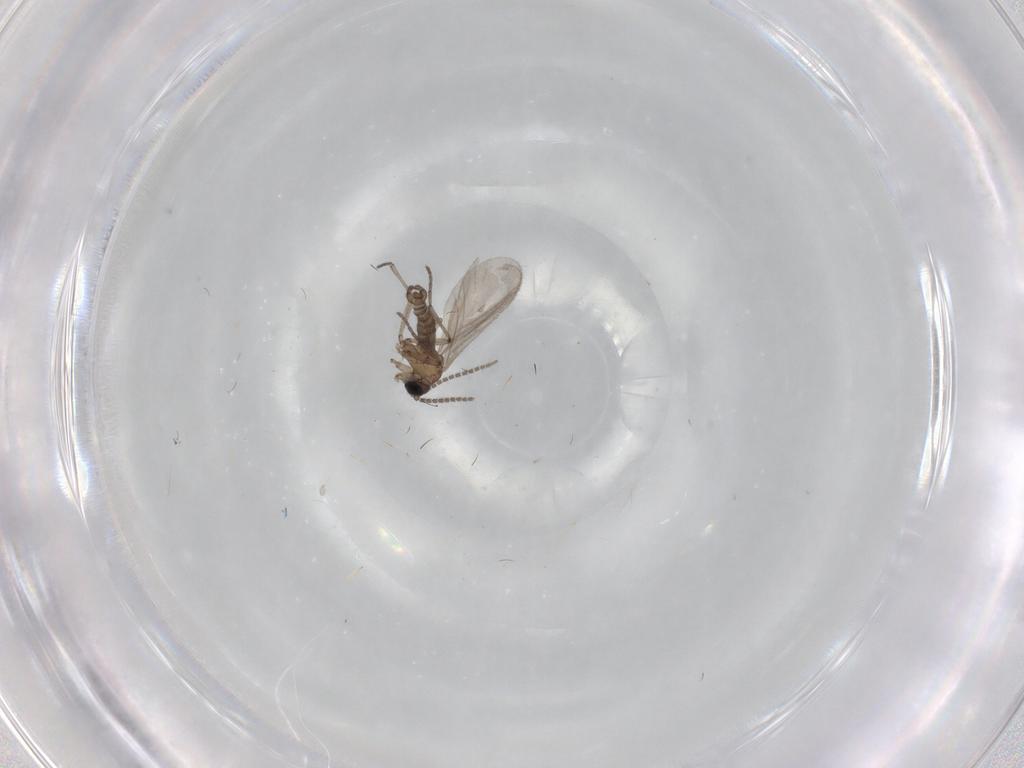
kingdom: Animalia
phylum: Arthropoda
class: Insecta
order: Diptera
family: Sciaridae
